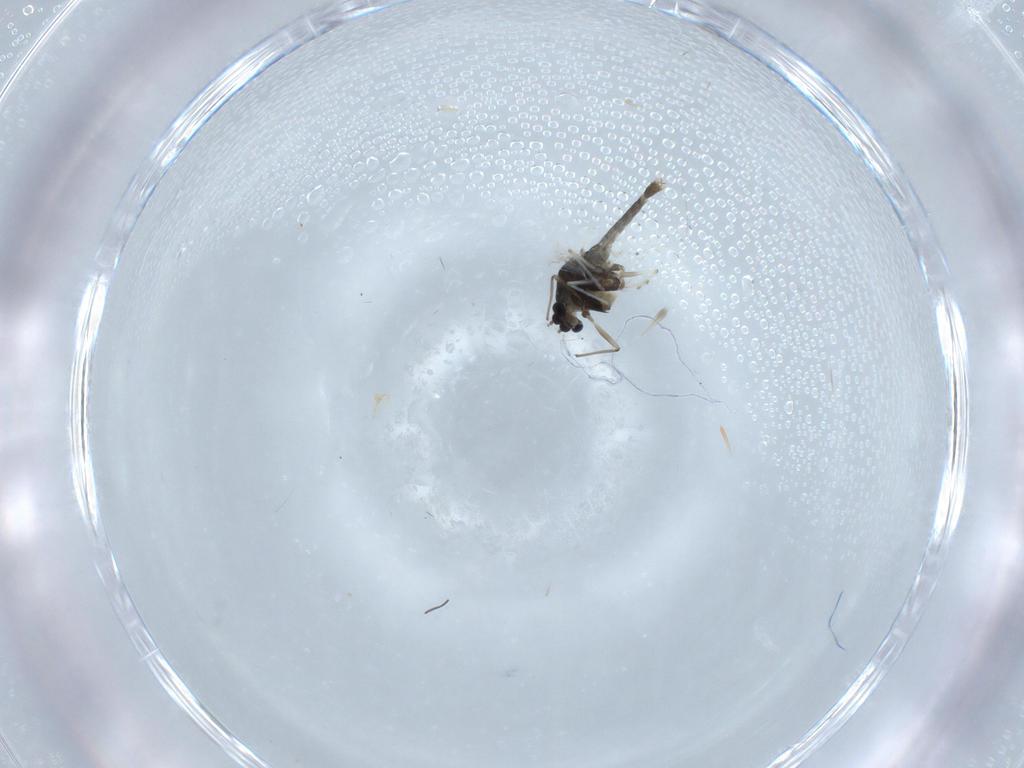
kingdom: Animalia
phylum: Arthropoda
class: Insecta
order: Diptera
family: Chironomidae
